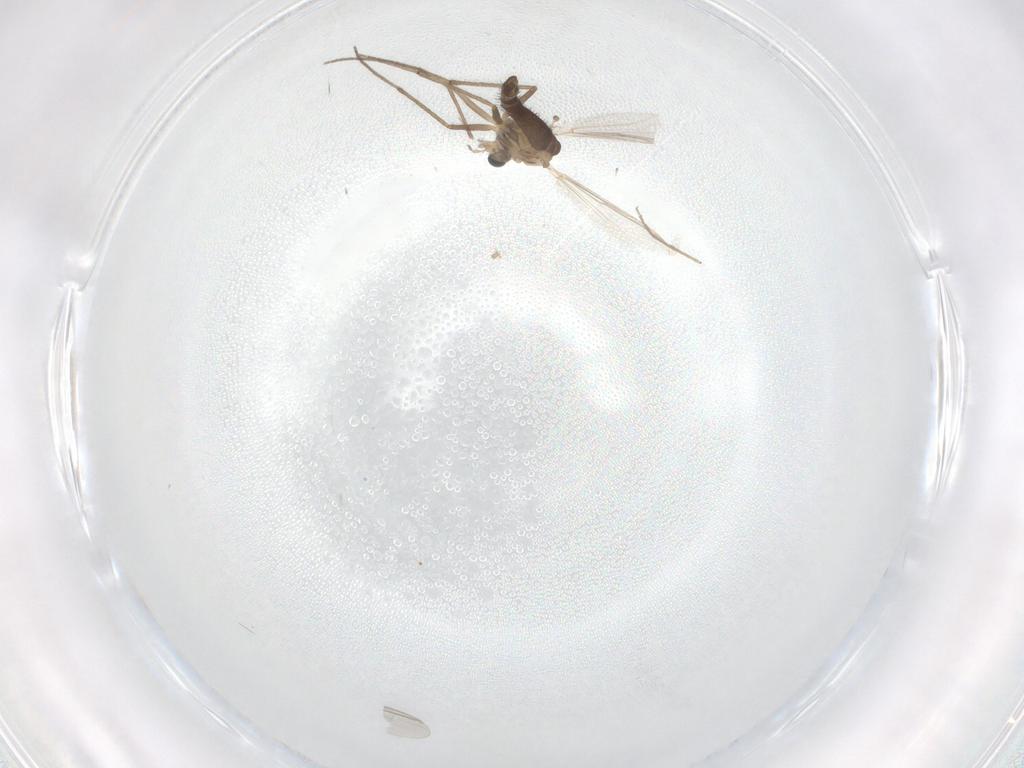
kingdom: Animalia
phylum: Arthropoda
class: Insecta
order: Diptera
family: Chironomidae
